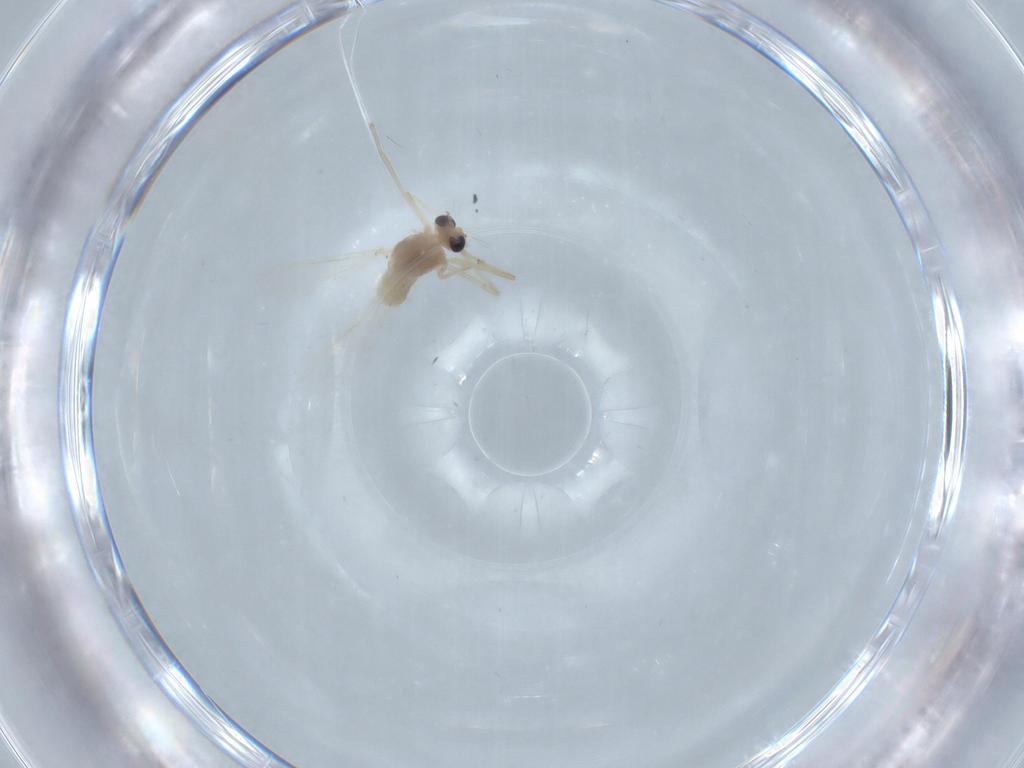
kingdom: Animalia
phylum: Arthropoda
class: Insecta
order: Diptera
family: Chironomidae
